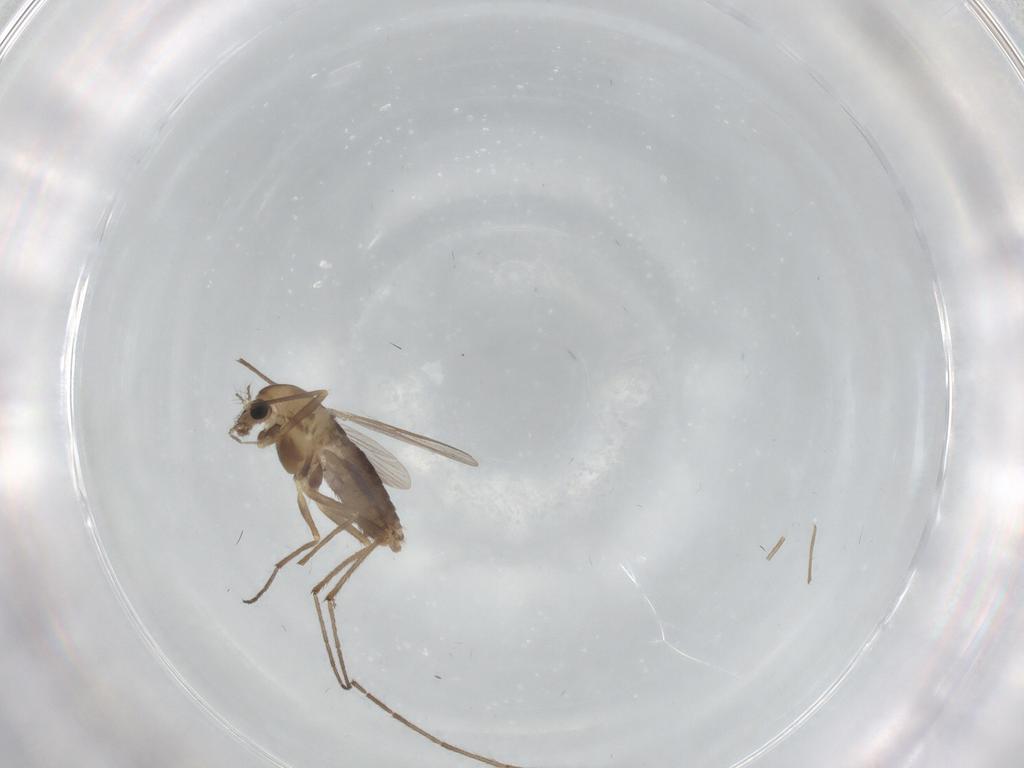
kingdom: Animalia
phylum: Arthropoda
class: Insecta
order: Diptera
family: Chironomidae
